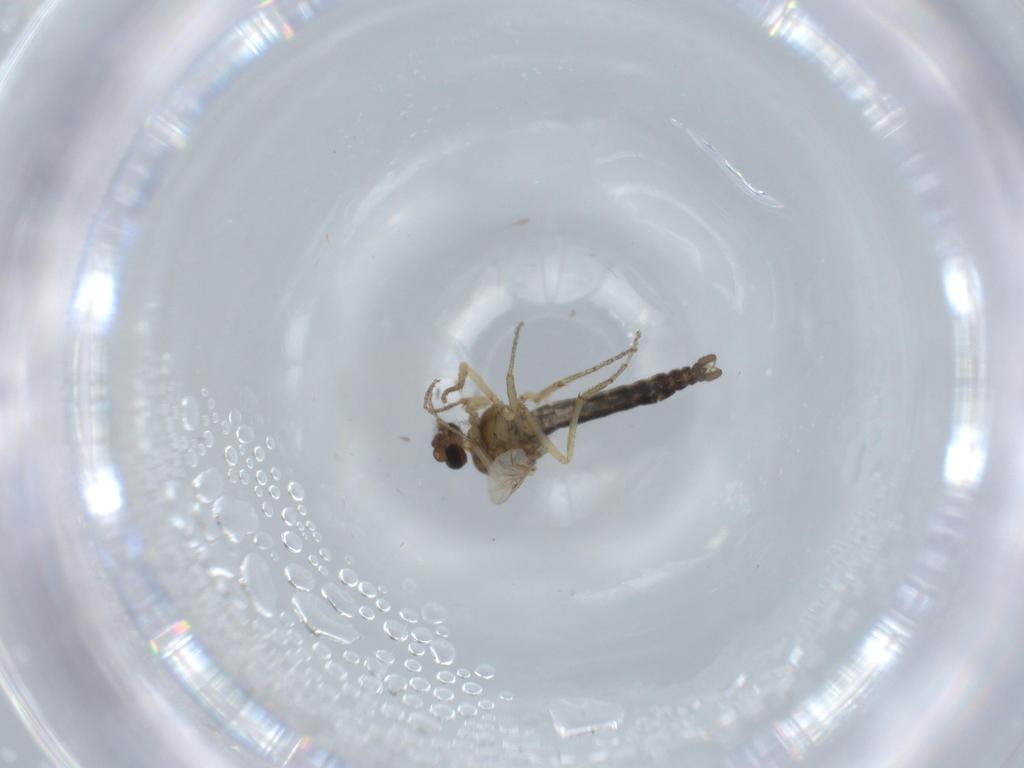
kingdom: Animalia
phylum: Arthropoda
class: Insecta
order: Diptera
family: Ceratopogonidae
